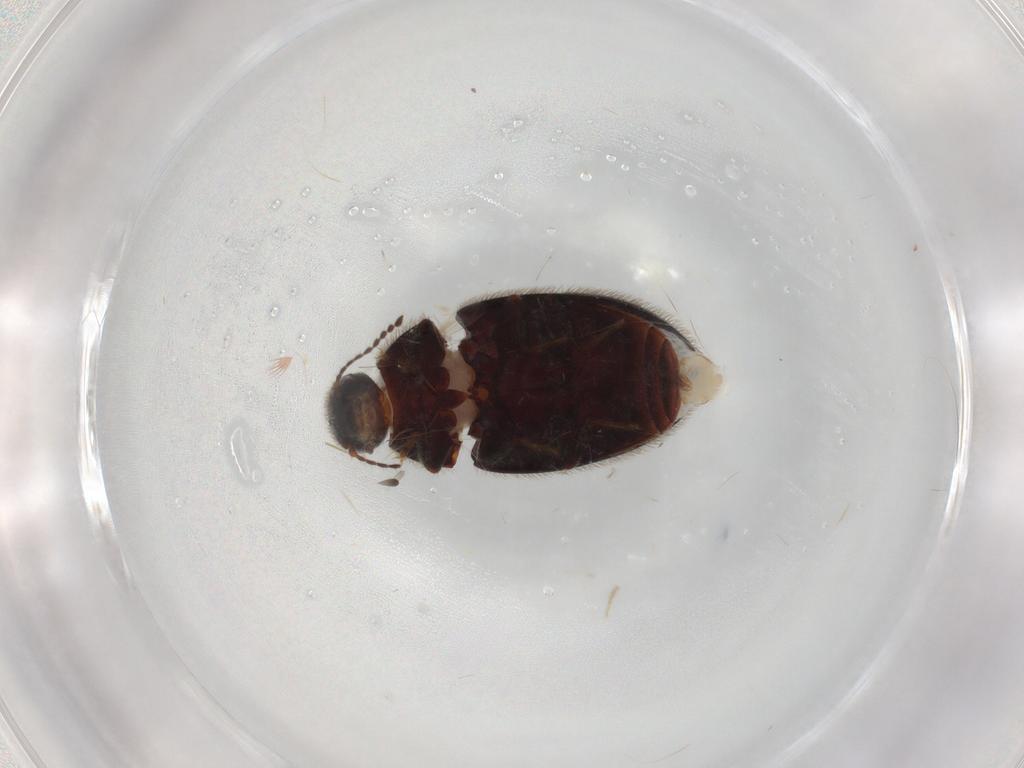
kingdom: Animalia
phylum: Arthropoda
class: Insecta
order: Coleoptera
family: Limnichidae
